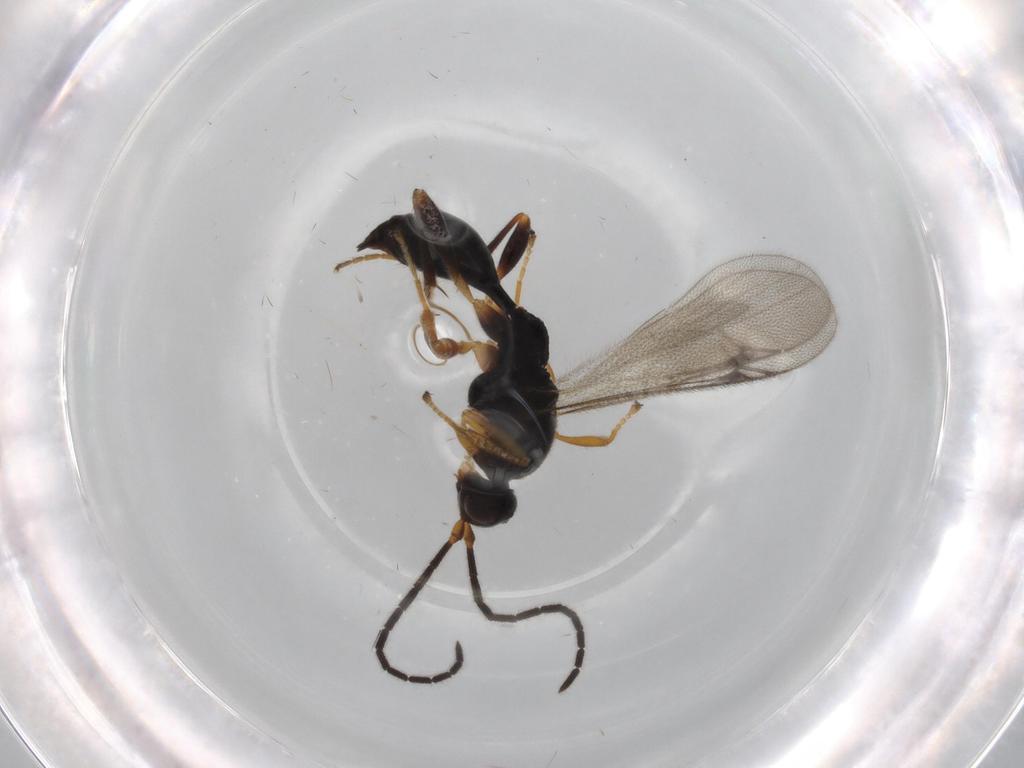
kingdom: Animalia
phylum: Arthropoda
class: Insecta
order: Hymenoptera
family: Proctotrupidae
